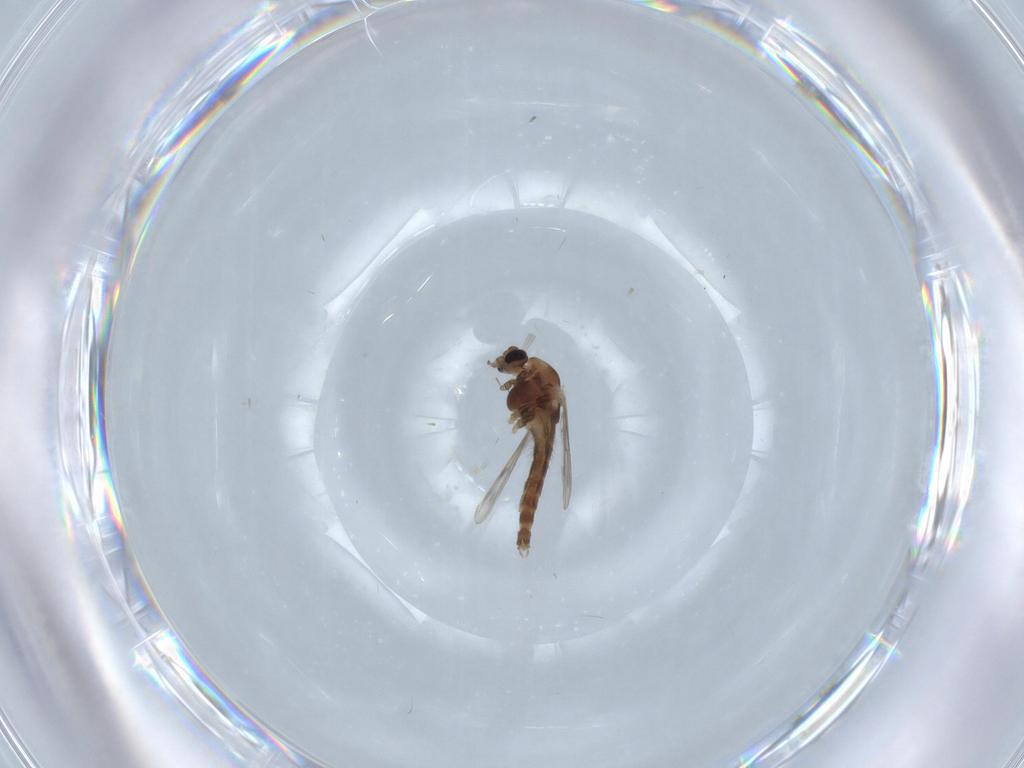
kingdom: Animalia
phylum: Arthropoda
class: Insecta
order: Diptera
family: Chironomidae
